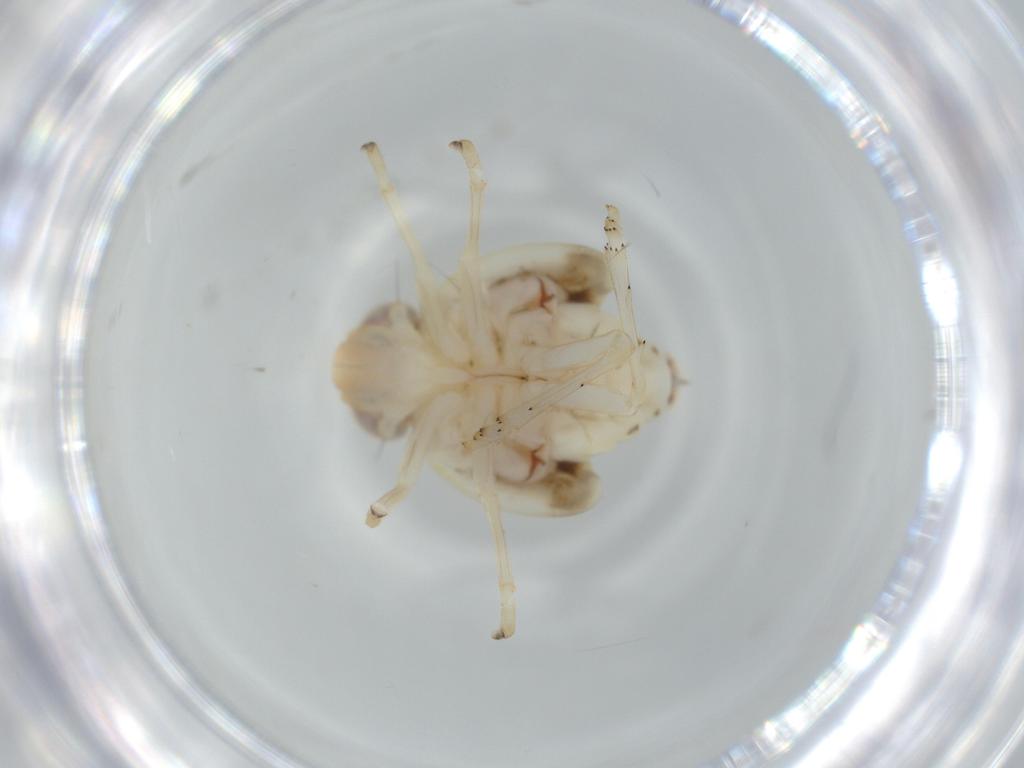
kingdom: Animalia
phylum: Arthropoda
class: Insecta
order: Hemiptera
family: Nogodinidae
